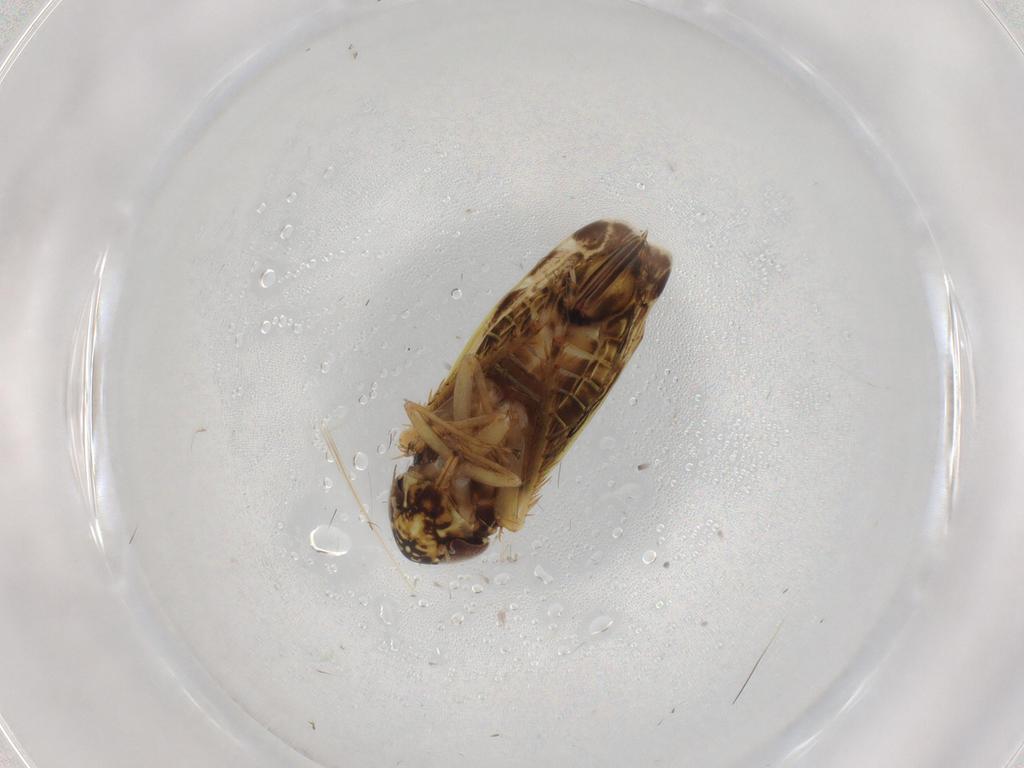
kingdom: Animalia
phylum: Arthropoda
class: Insecta
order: Hemiptera
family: Cicadellidae
